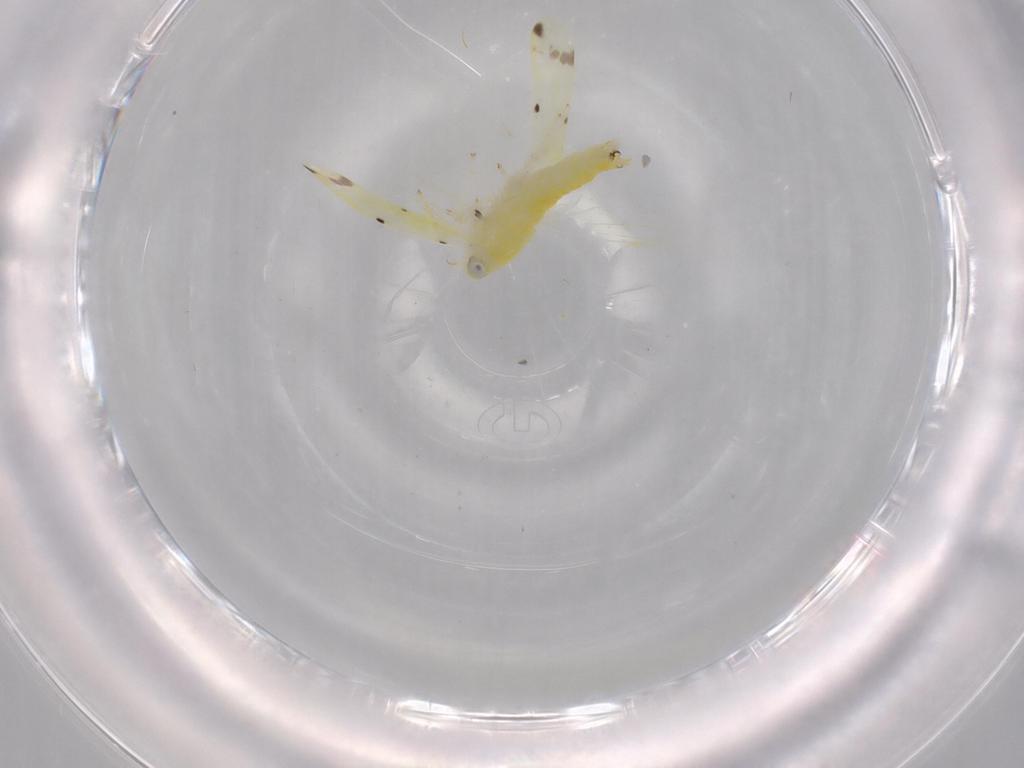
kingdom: Animalia
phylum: Arthropoda
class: Insecta
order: Hemiptera
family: Cicadellidae
